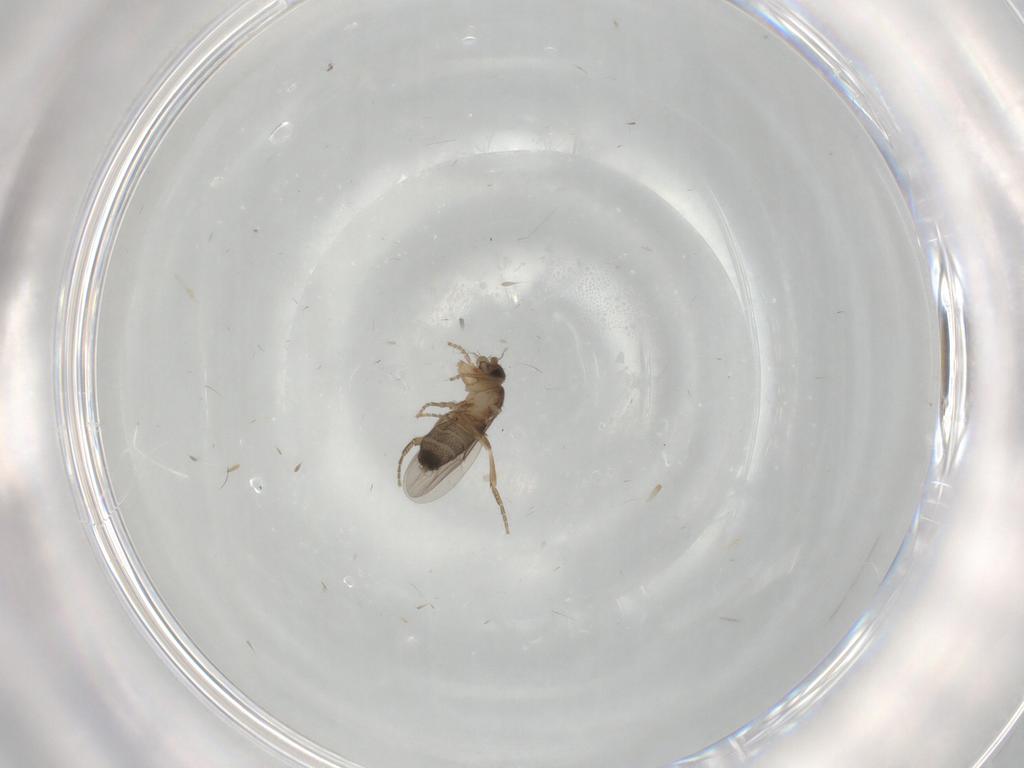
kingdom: Animalia
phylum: Arthropoda
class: Insecta
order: Diptera
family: Phoridae
